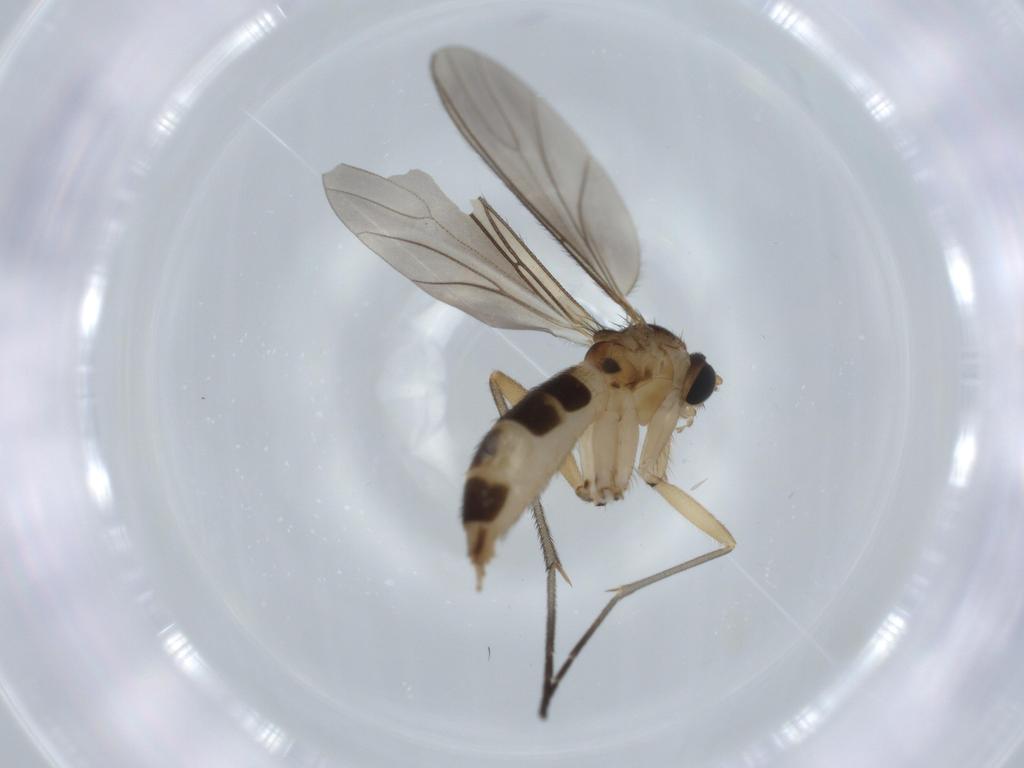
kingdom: Animalia
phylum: Arthropoda
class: Insecta
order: Diptera
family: Sciaridae
